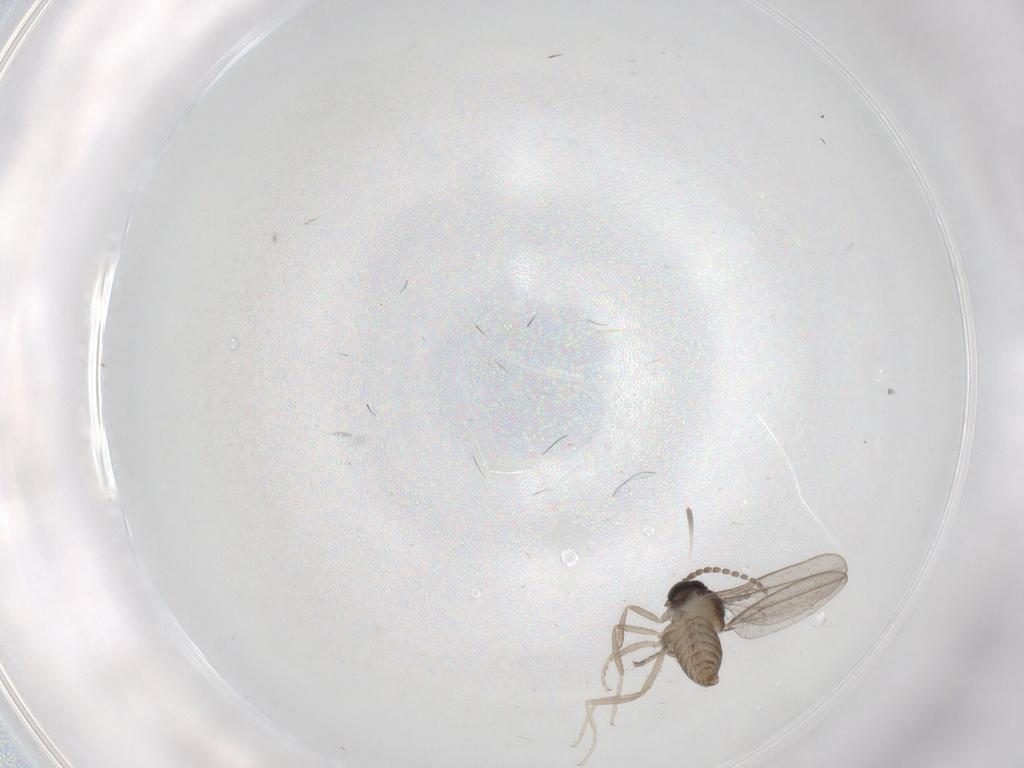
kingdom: Animalia
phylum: Arthropoda
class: Insecta
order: Diptera
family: Cecidomyiidae
